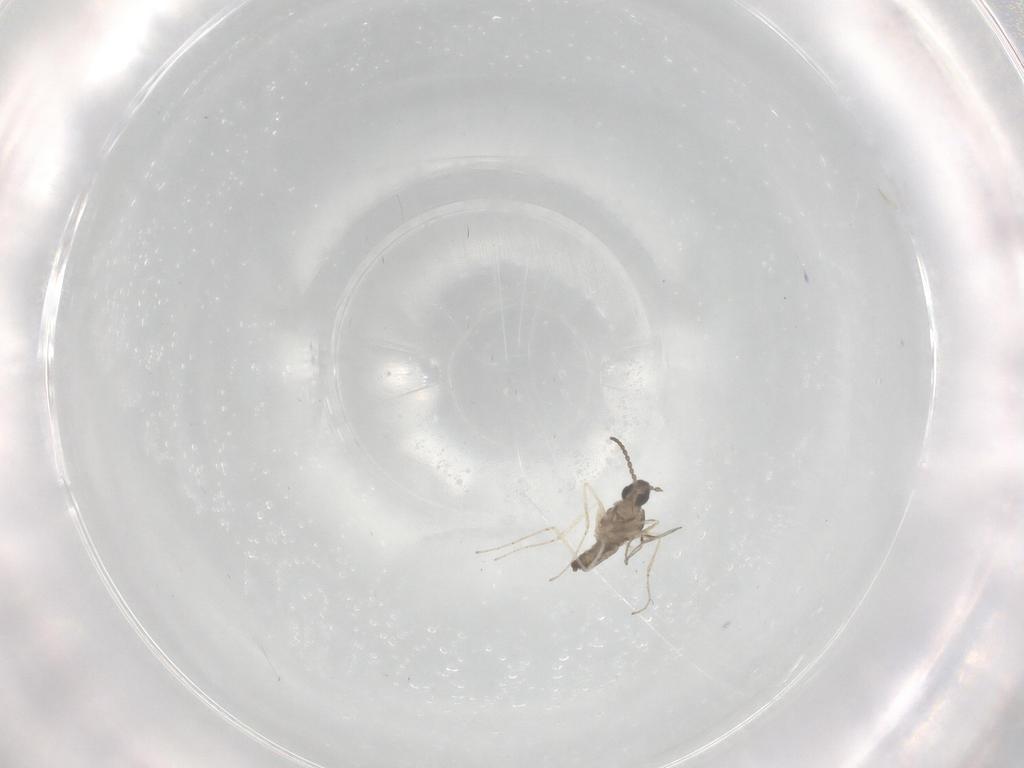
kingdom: Animalia
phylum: Arthropoda
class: Insecta
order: Diptera
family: Cecidomyiidae
